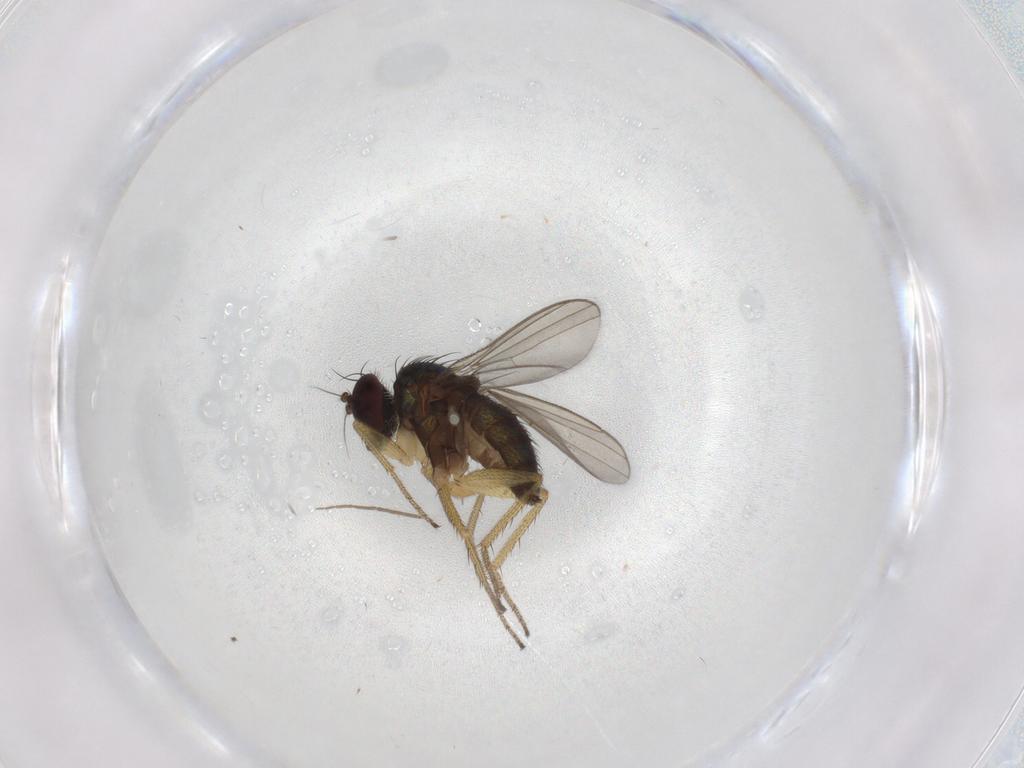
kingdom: Animalia
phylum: Arthropoda
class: Insecta
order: Diptera
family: Chironomidae
